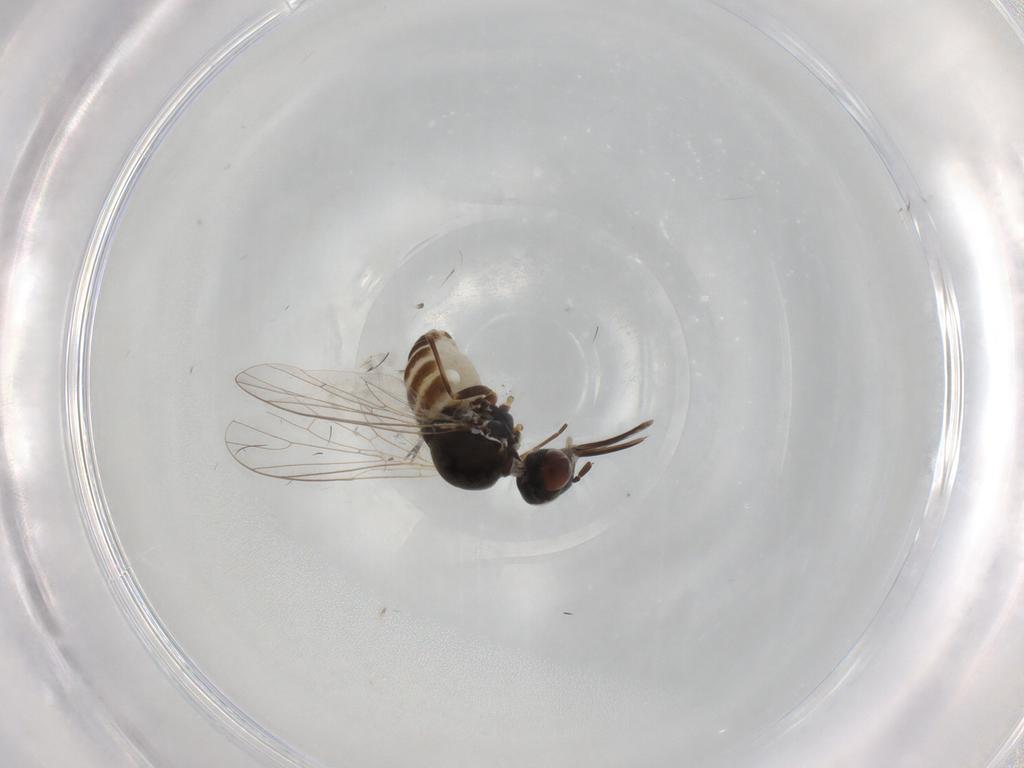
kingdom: Animalia
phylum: Arthropoda
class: Insecta
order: Diptera
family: Bombyliidae
